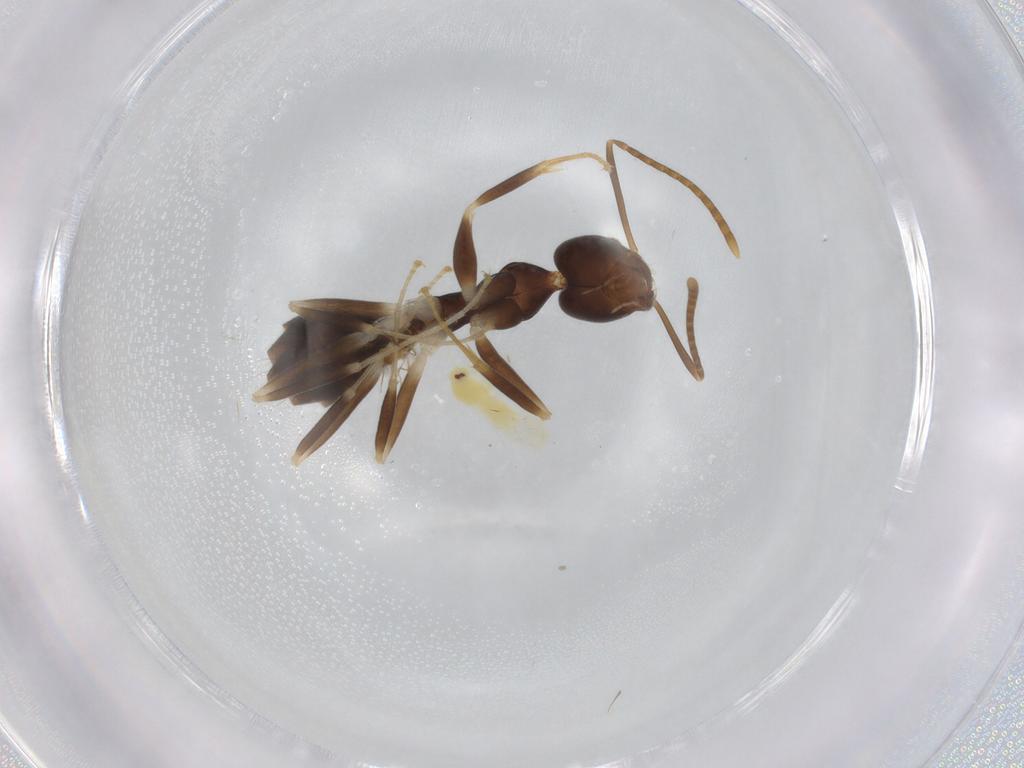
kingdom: Animalia
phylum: Arthropoda
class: Insecta
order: Hymenoptera
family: Formicidae
